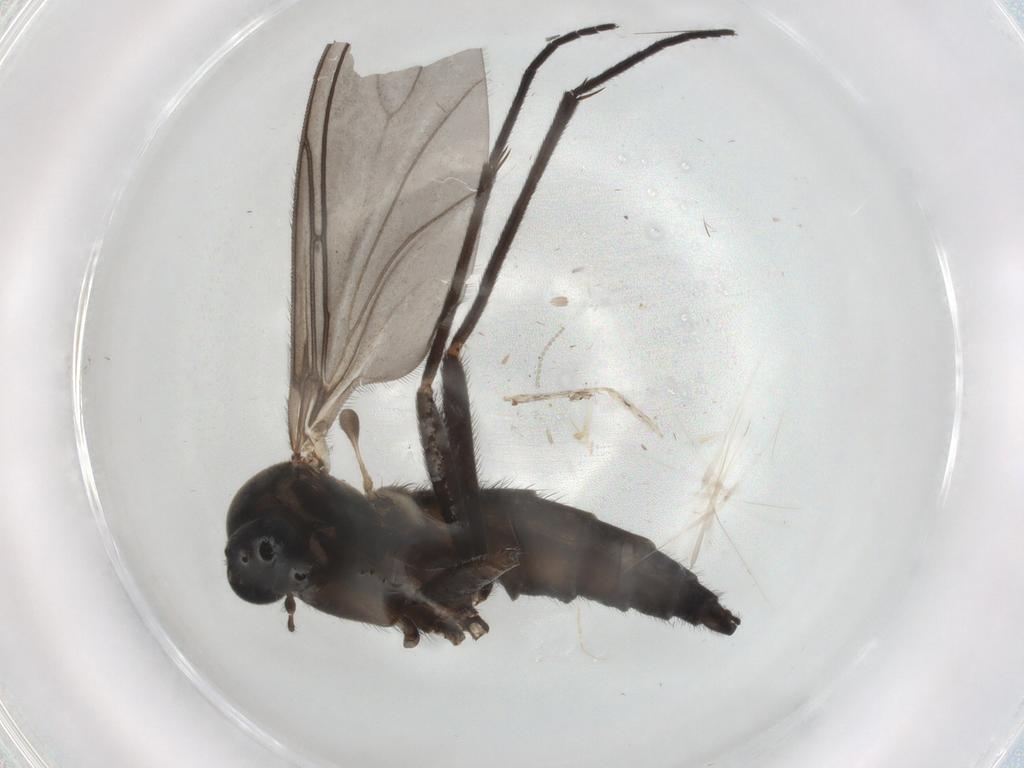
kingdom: Animalia
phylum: Arthropoda
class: Insecta
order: Diptera
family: Sciaridae
